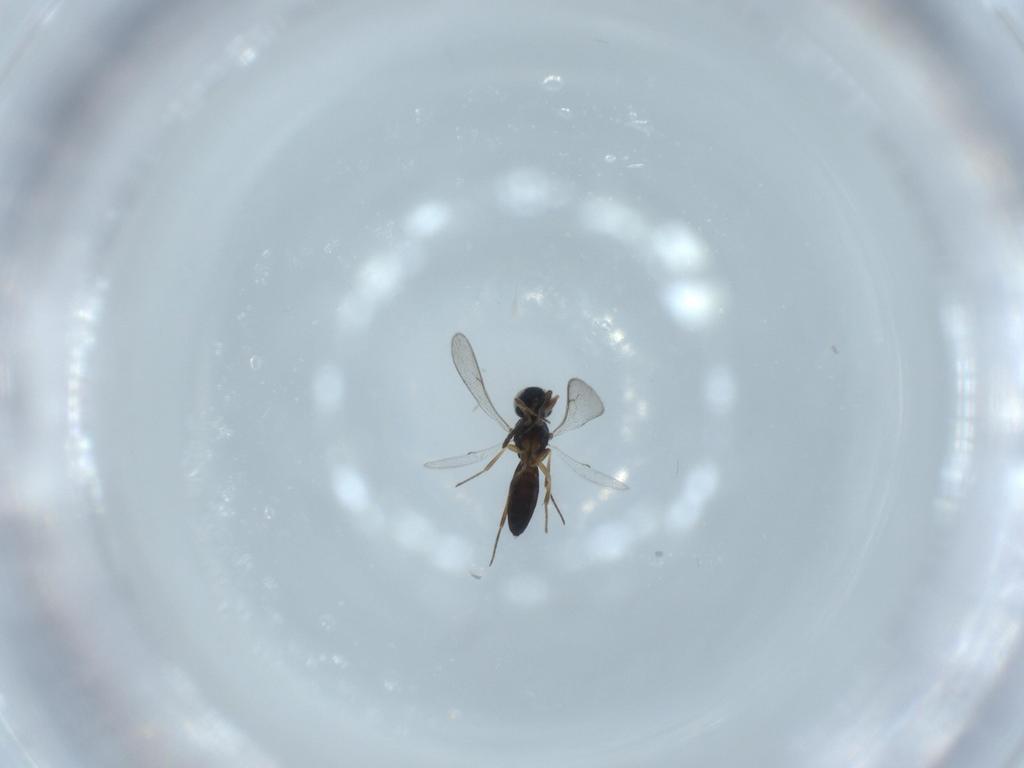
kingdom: Animalia
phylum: Arthropoda
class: Insecta
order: Hymenoptera
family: Scelionidae
